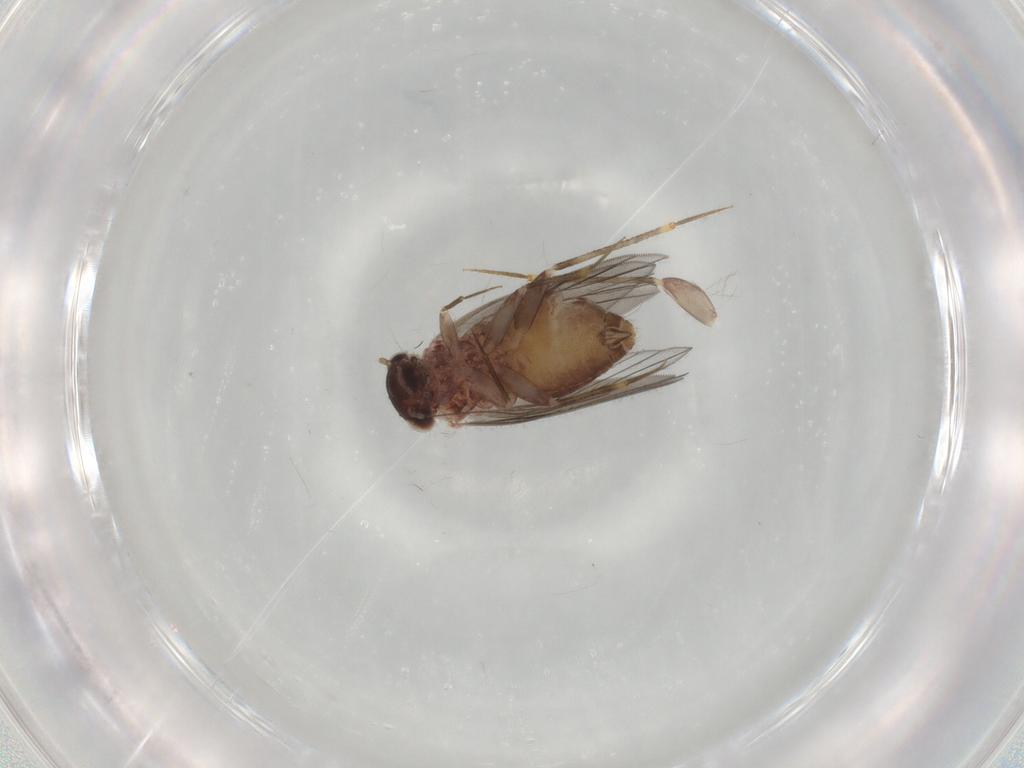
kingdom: Animalia
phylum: Arthropoda
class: Insecta
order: Psocodea
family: Lepidopsocidae
